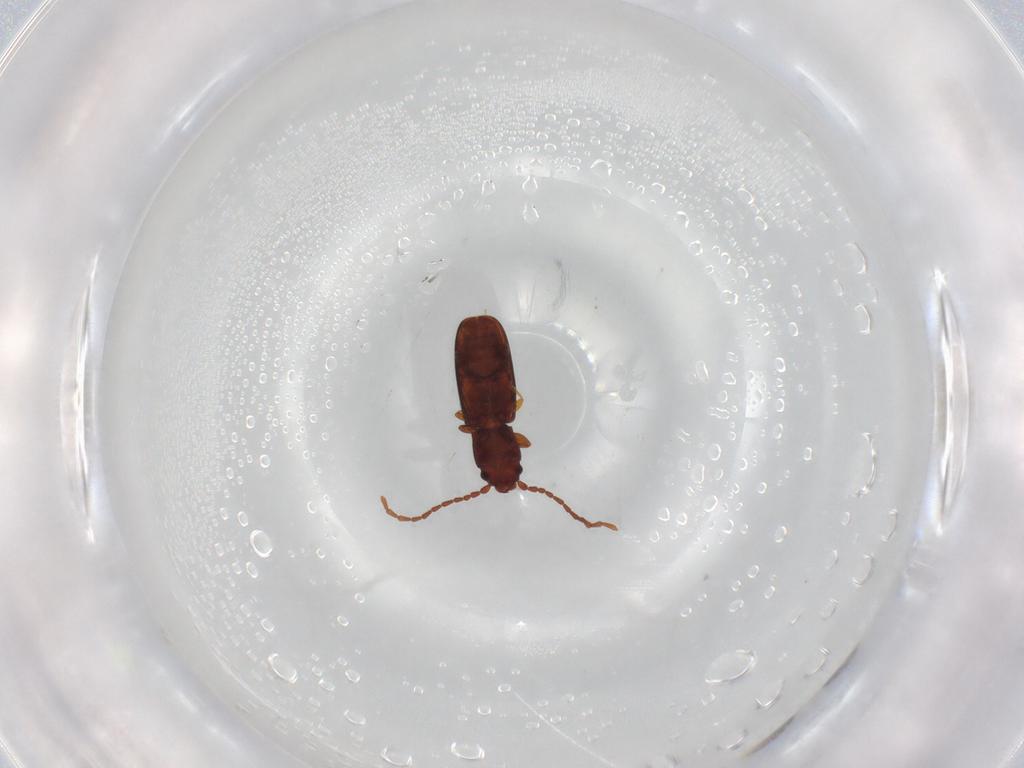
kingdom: Animalia
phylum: Arthropoda
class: Insecta
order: Coleoptera
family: Laemophloeidae
